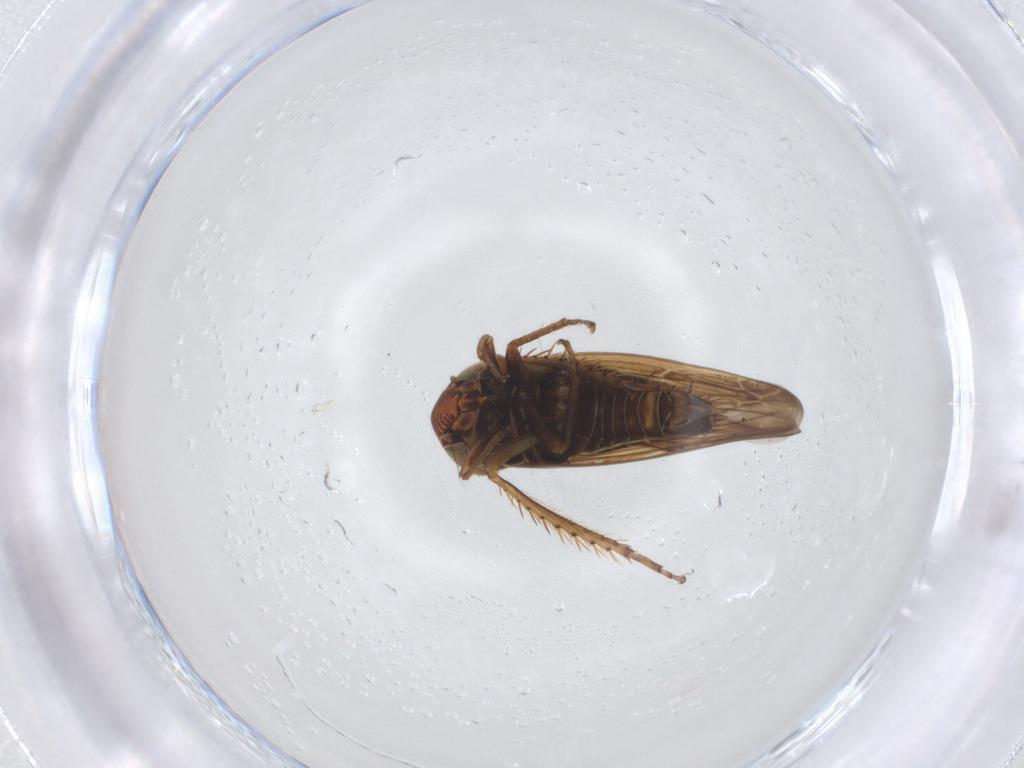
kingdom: Animalia
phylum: Arthropoda
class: Insecta
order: Hemiptera
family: Cicadellidae
